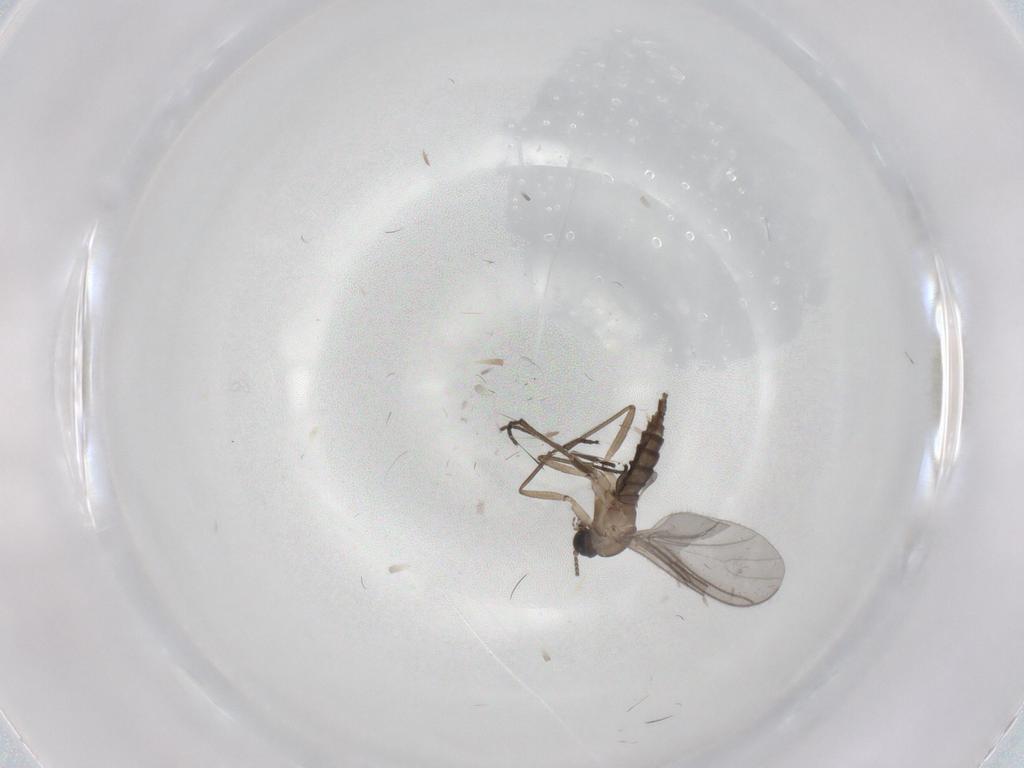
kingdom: Animalia
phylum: Arthropoda
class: Insecta
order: Diptera
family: Sciaridae
